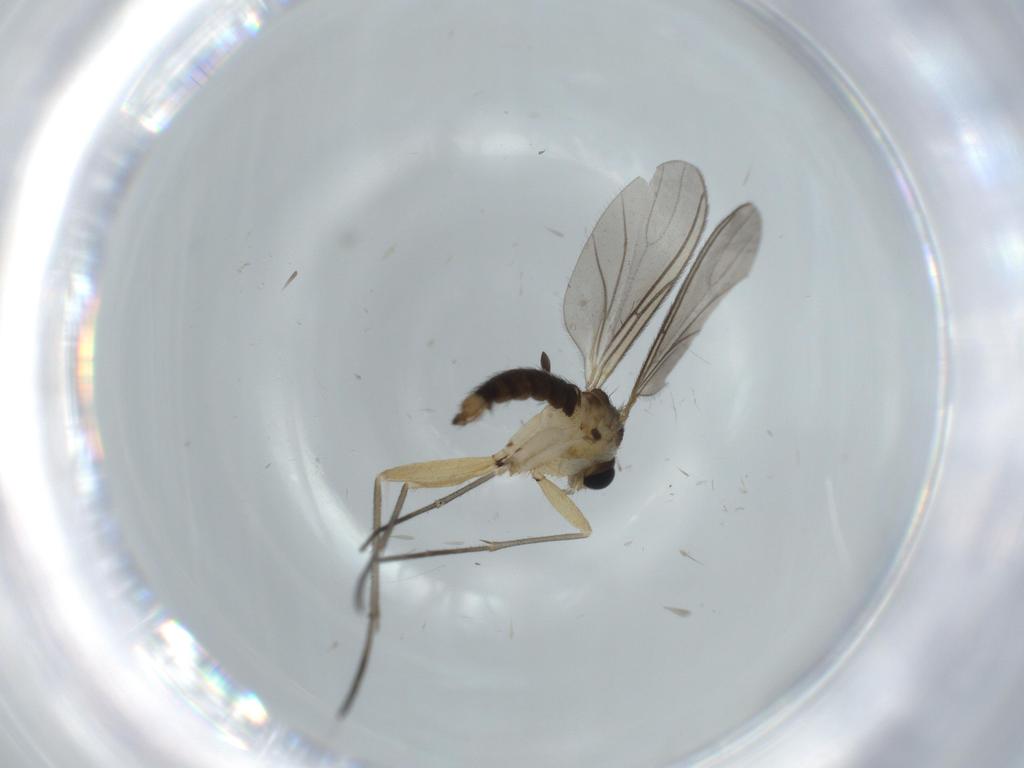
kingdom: Animalia
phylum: Arthropoda
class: Insecta
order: Diptera
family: Sciaridae
